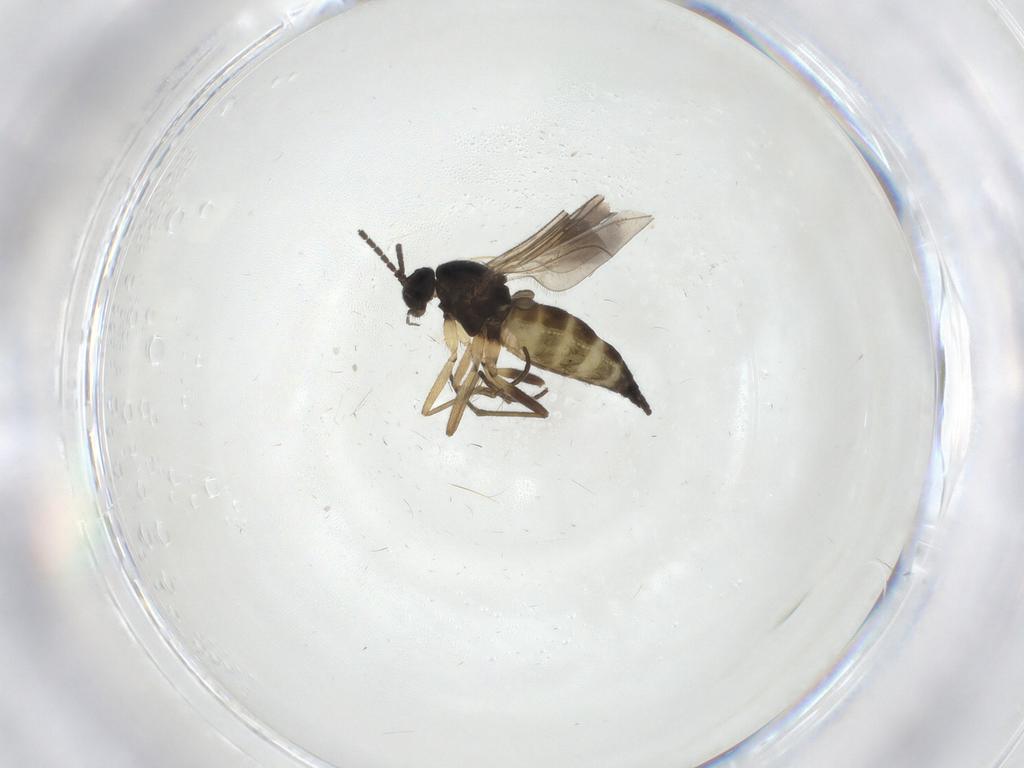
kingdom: Animalia
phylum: Arthropoda
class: Insecta
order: Diptera
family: Sciaridae
